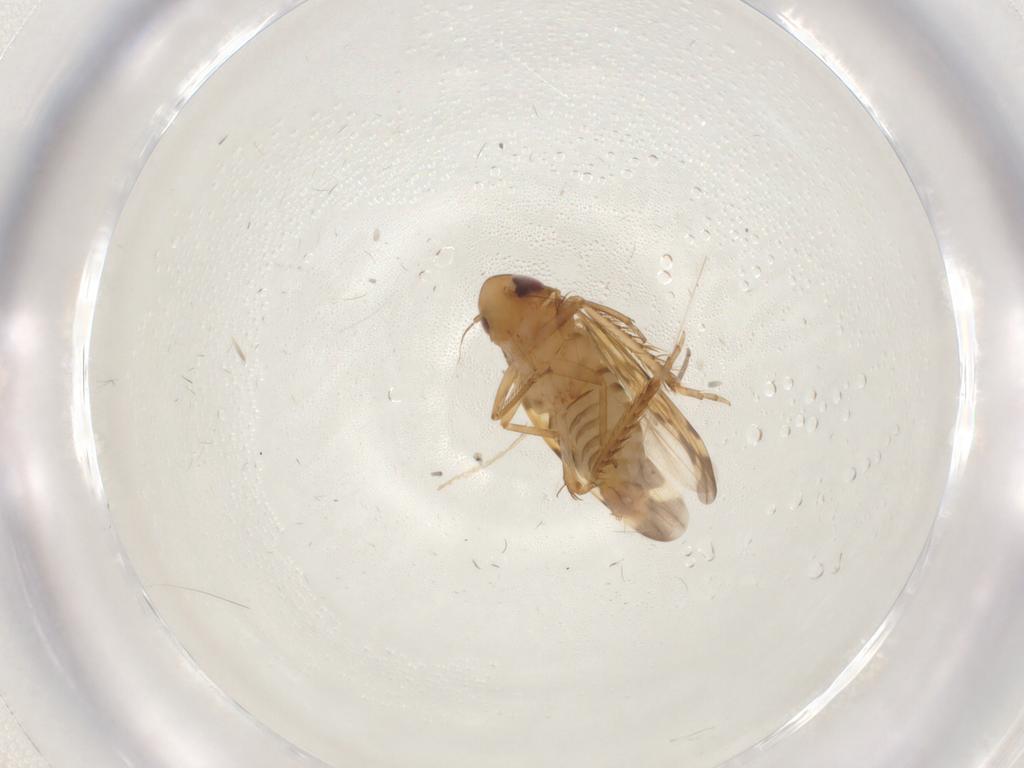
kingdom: Animalia
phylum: Arthropoda
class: Insecta
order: Hemiptera
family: Cicadellidae
